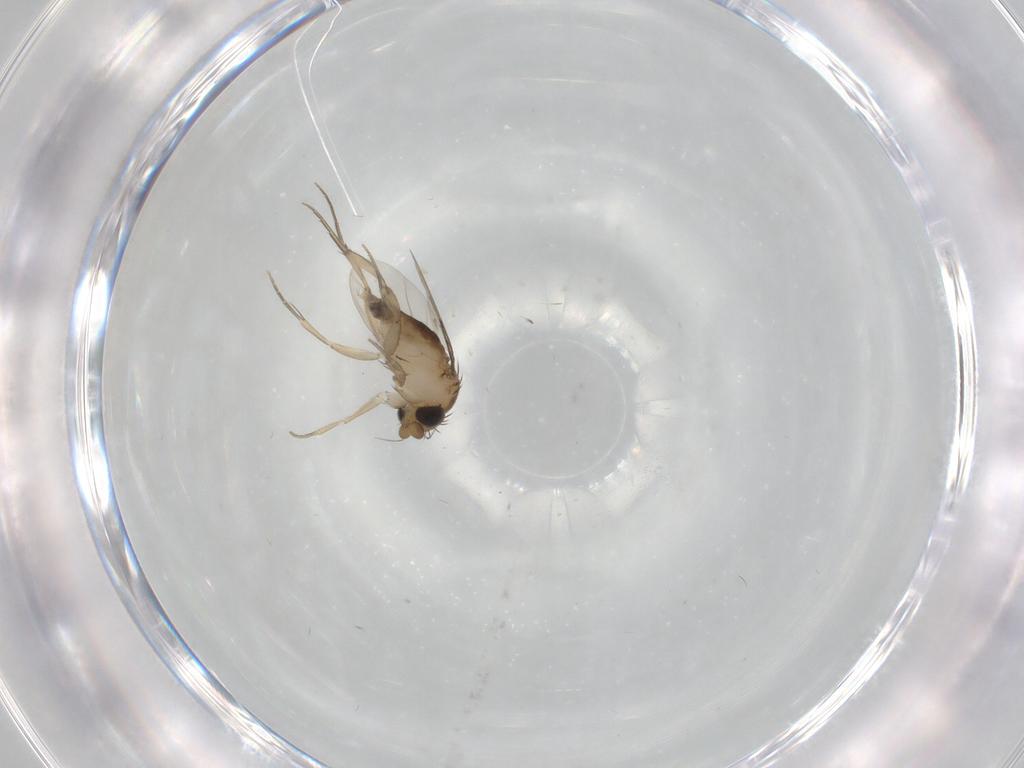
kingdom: Animalia
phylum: Arthropoda
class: Insecta
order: Diptera
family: Phoridae
